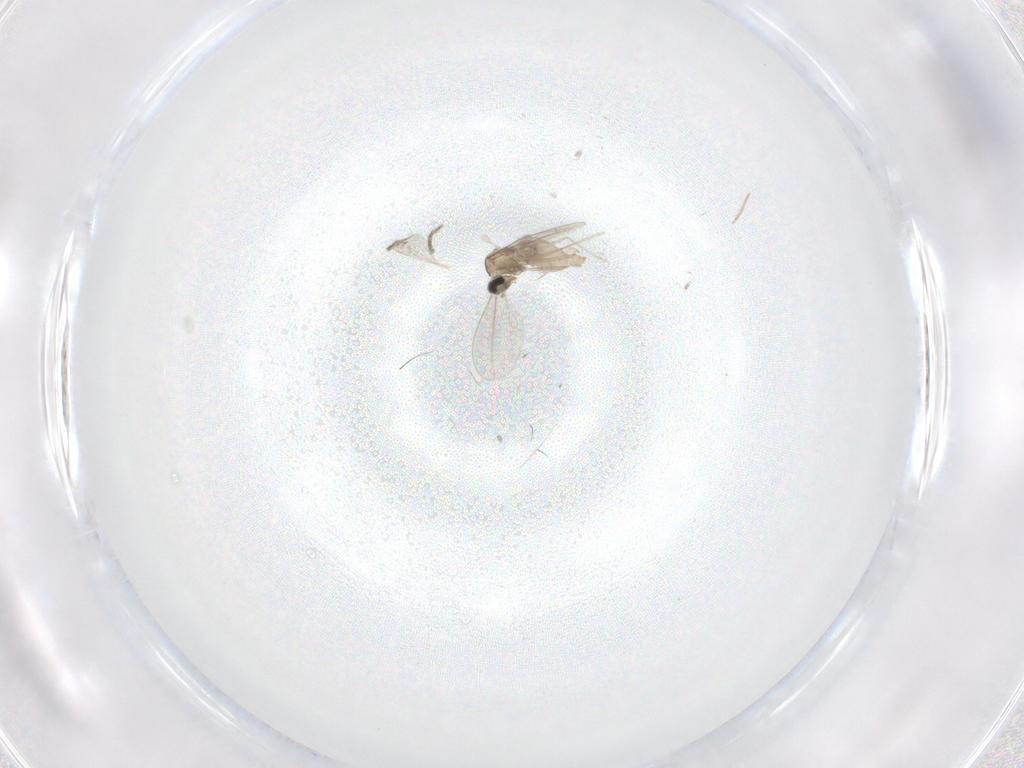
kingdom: Animalia
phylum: Arthropoda
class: Insecta
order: Diptera
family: Cecidomyiidae
